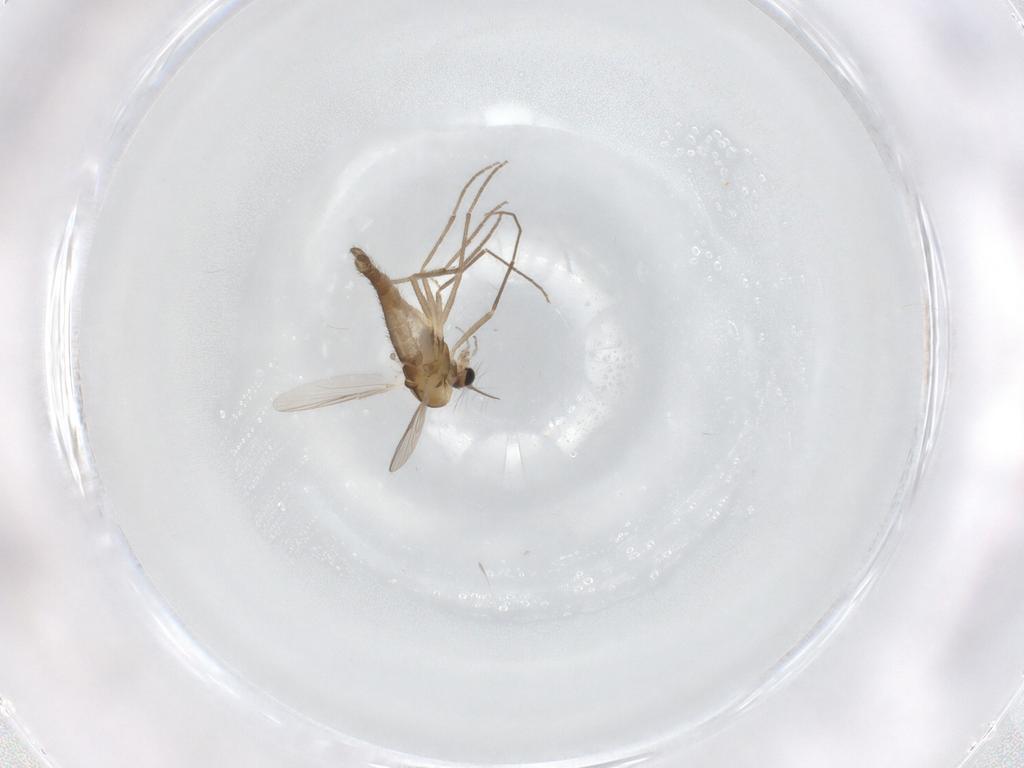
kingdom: Animalia
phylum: Arthropoda
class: Insecta
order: Diptera
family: Chironomidae
